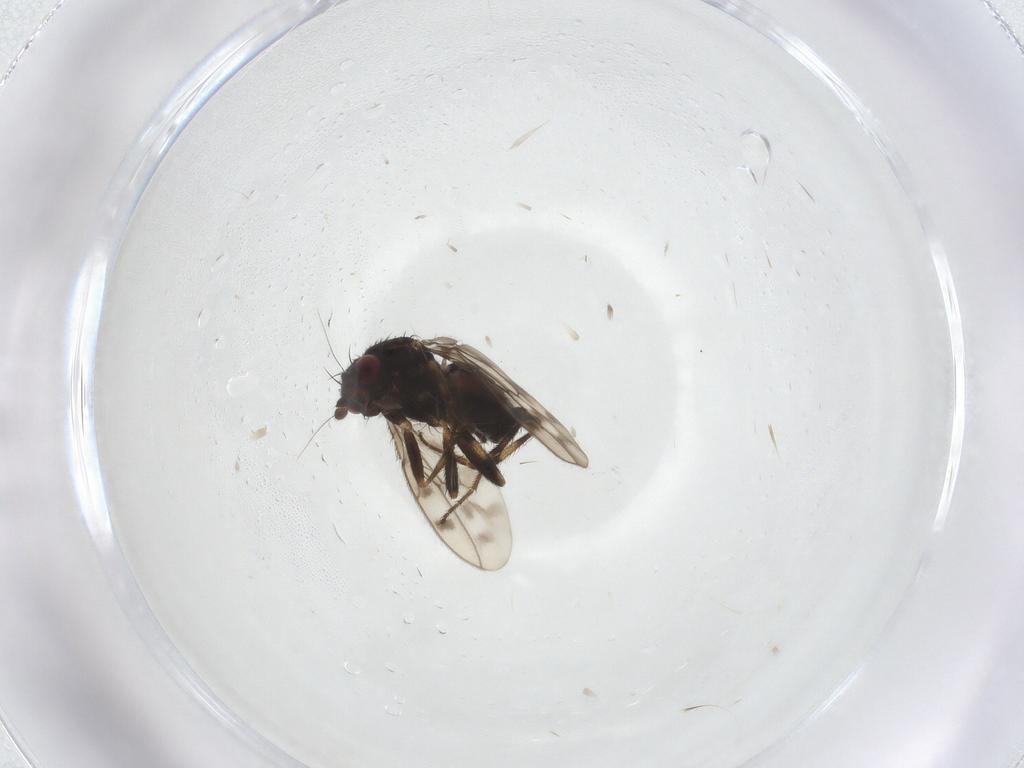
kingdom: Animalia
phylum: Arthropoda
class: Insecta
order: Diptera
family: Sphaeroceridae
